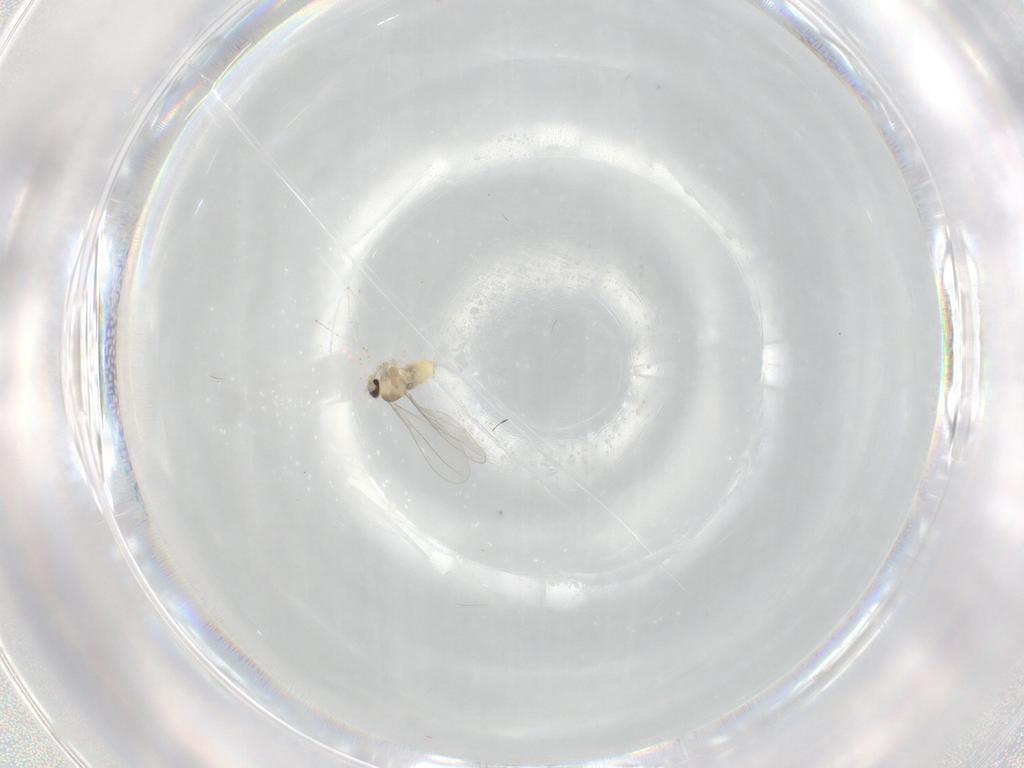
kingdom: Animalia
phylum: Arthropoda
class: Insecta
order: Diptera
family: Cecidomyiidae
